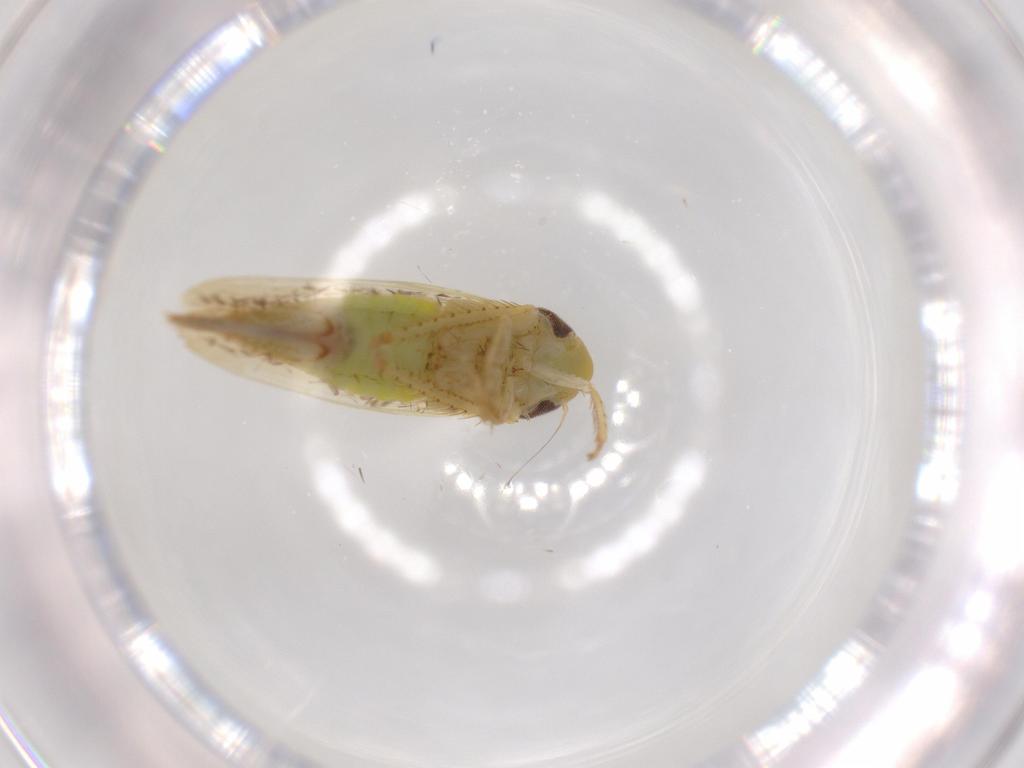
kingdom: Animalia
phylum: Arthropoda
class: Insecta
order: Hemiptera
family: Cicadellidae
